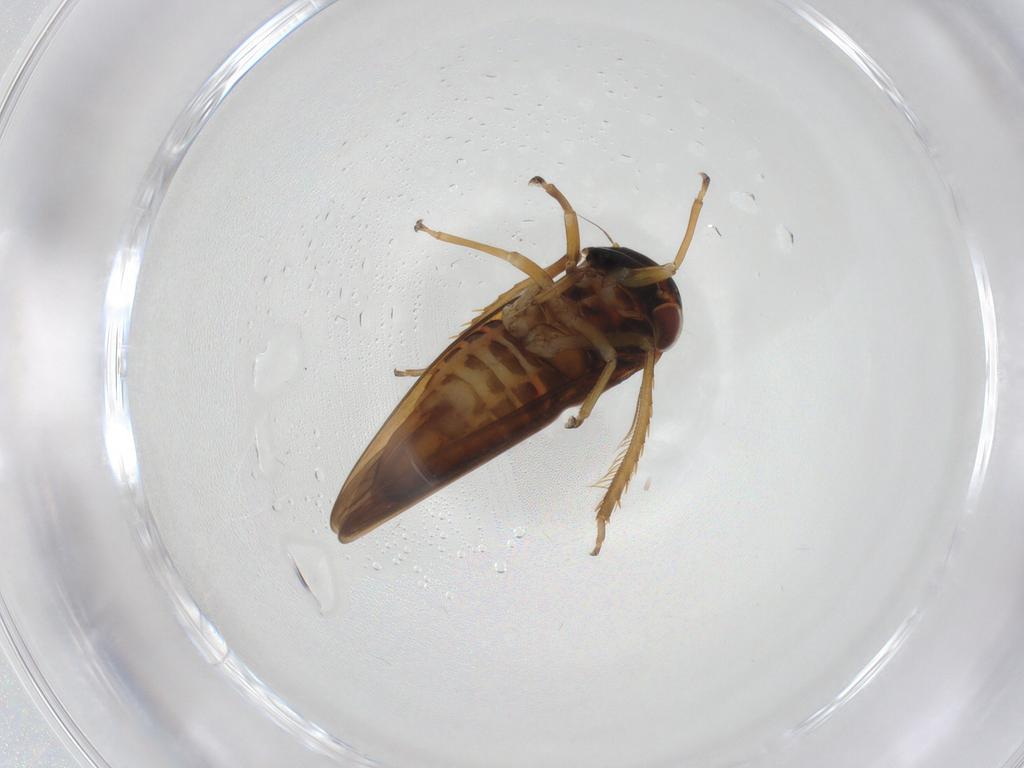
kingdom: Animalia
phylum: Arthropoda
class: Insecta
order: Hemiptera
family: Cicadellidae
